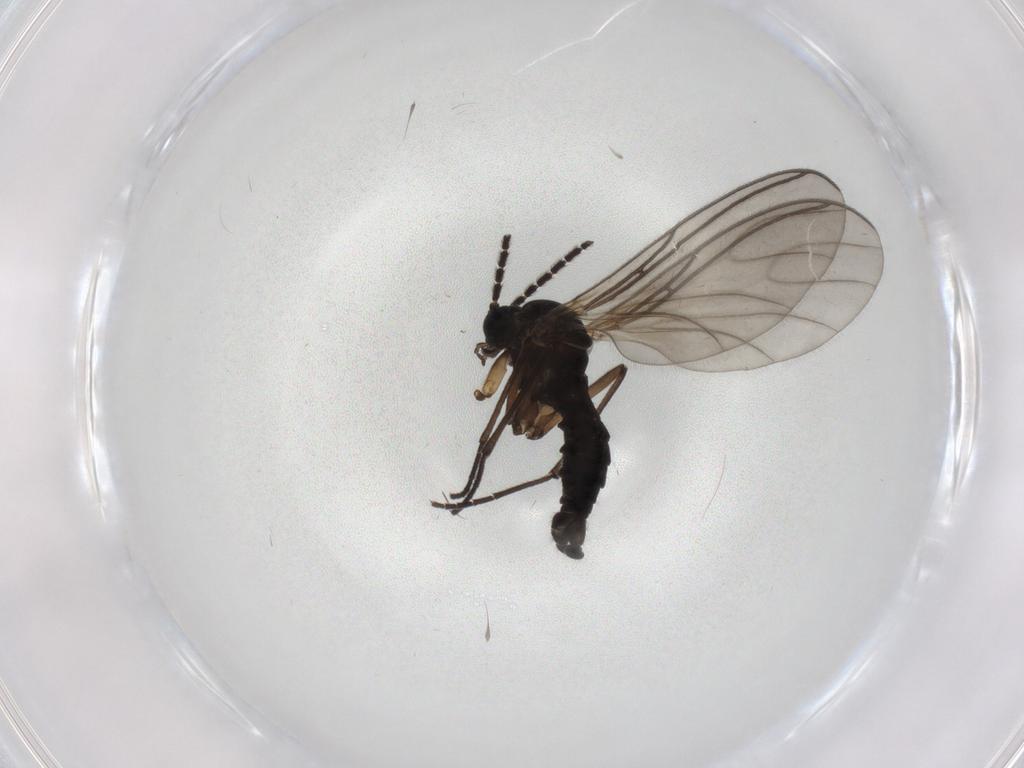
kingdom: Animalia
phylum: Arthropoda
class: Insecta
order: Diptera
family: Sciaridae
